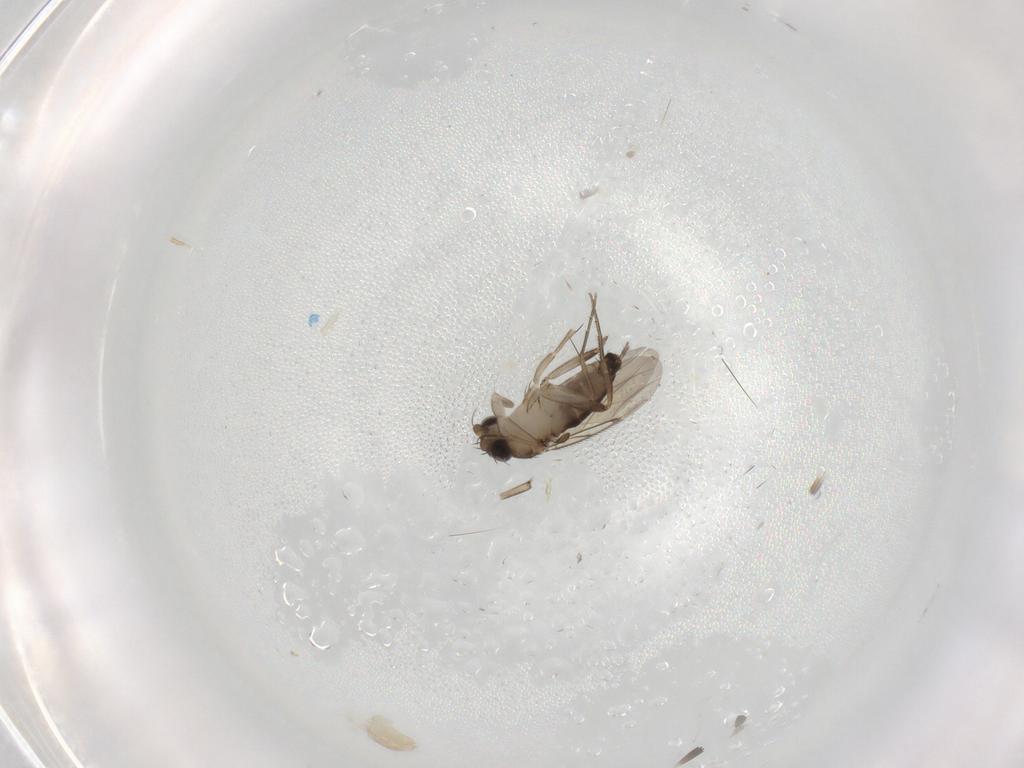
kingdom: Animalia
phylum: Arthropoda
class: Insecta
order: Diptera
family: Phoridae
